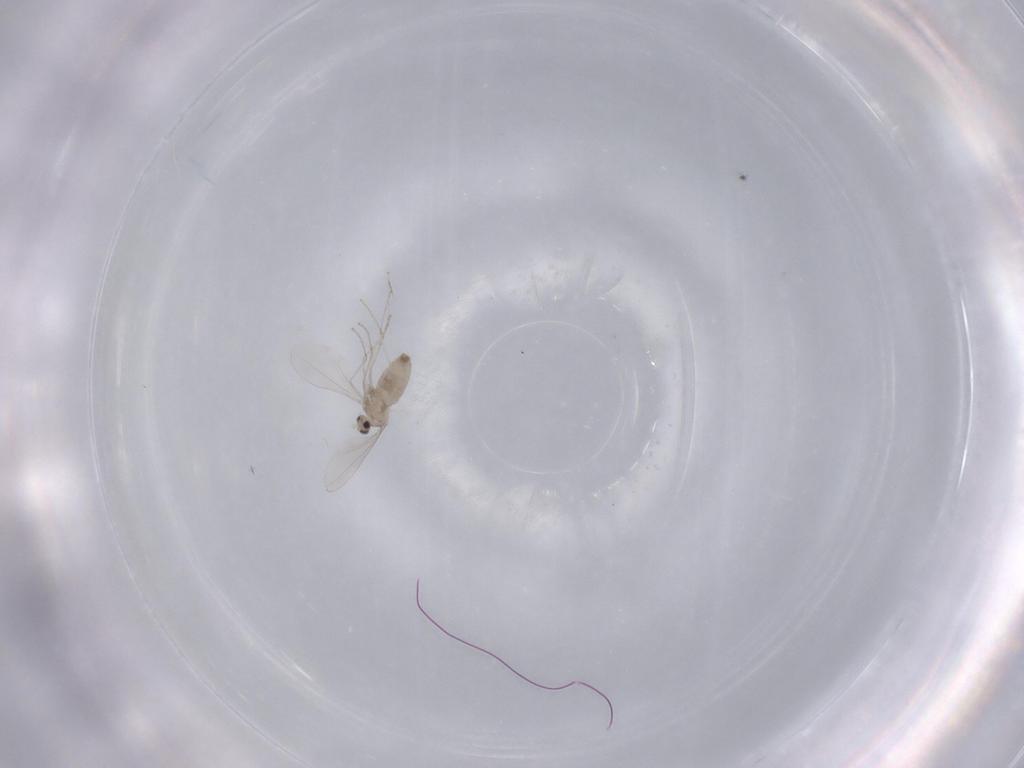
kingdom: Animalia
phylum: Arthropoda
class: Insecta
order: Diptera
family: Cecidomyiidae
